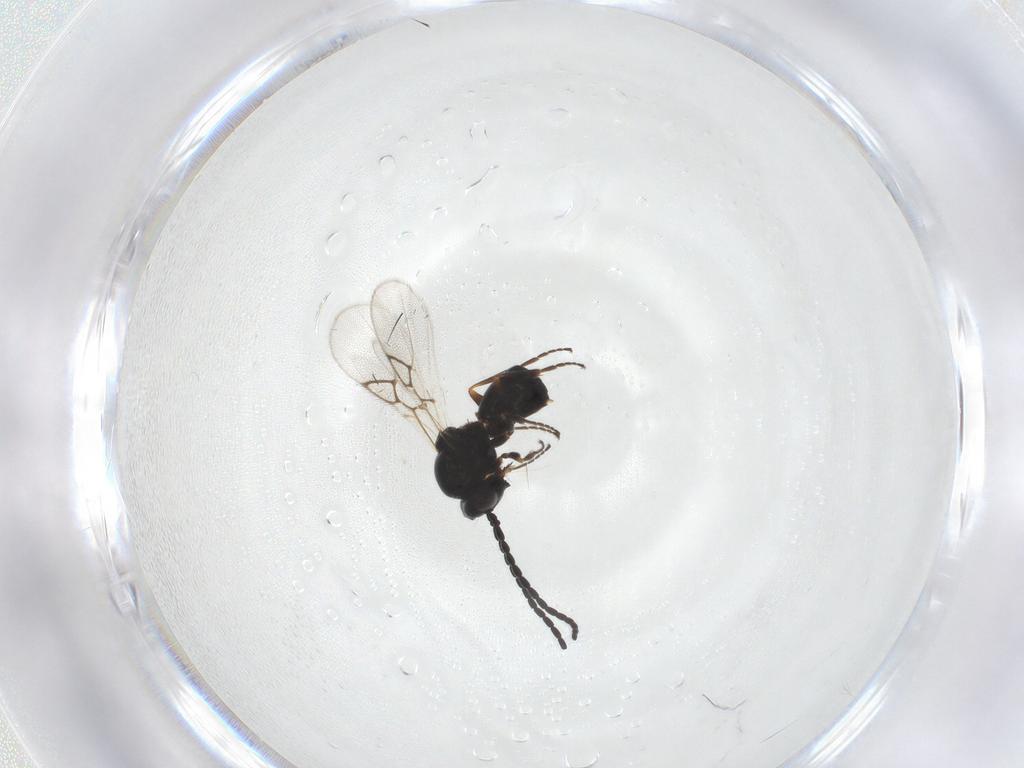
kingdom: Animalia
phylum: Arthropoda
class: Insecta
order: Hymenoptera
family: Figitidae
